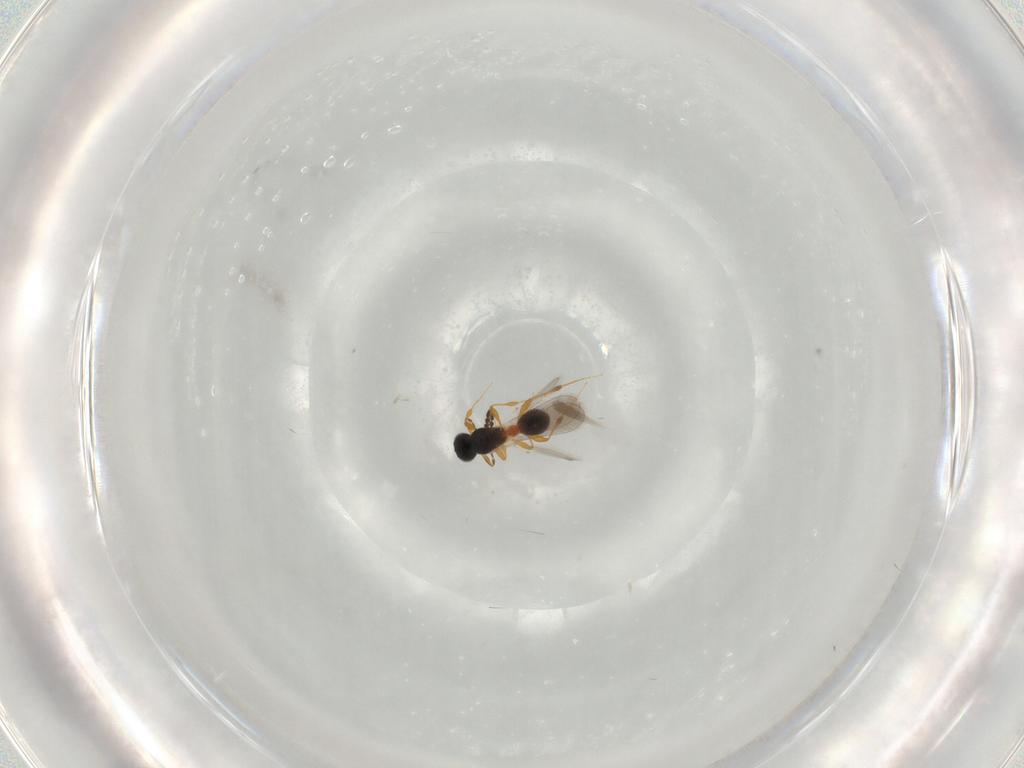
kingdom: Animalia
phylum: Arthropoda
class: Insecta
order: Hymenoptera
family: Platygastridae
